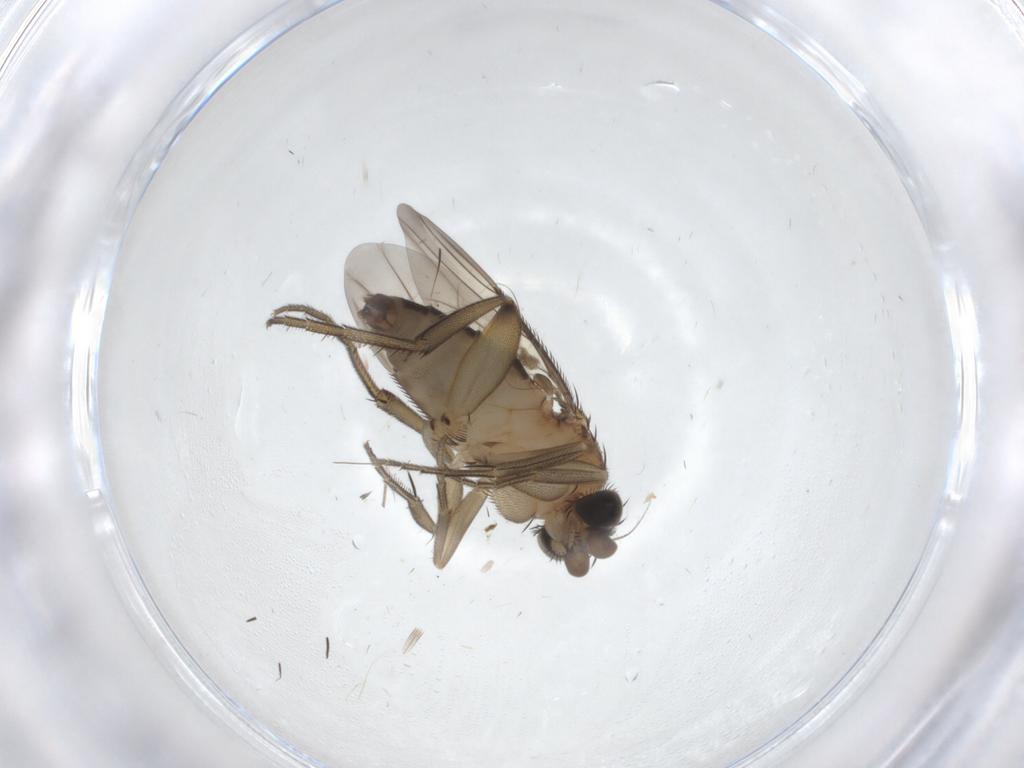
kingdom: Animalia
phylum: Arthropoda
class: Insecta
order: Diptera
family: Phoridae
